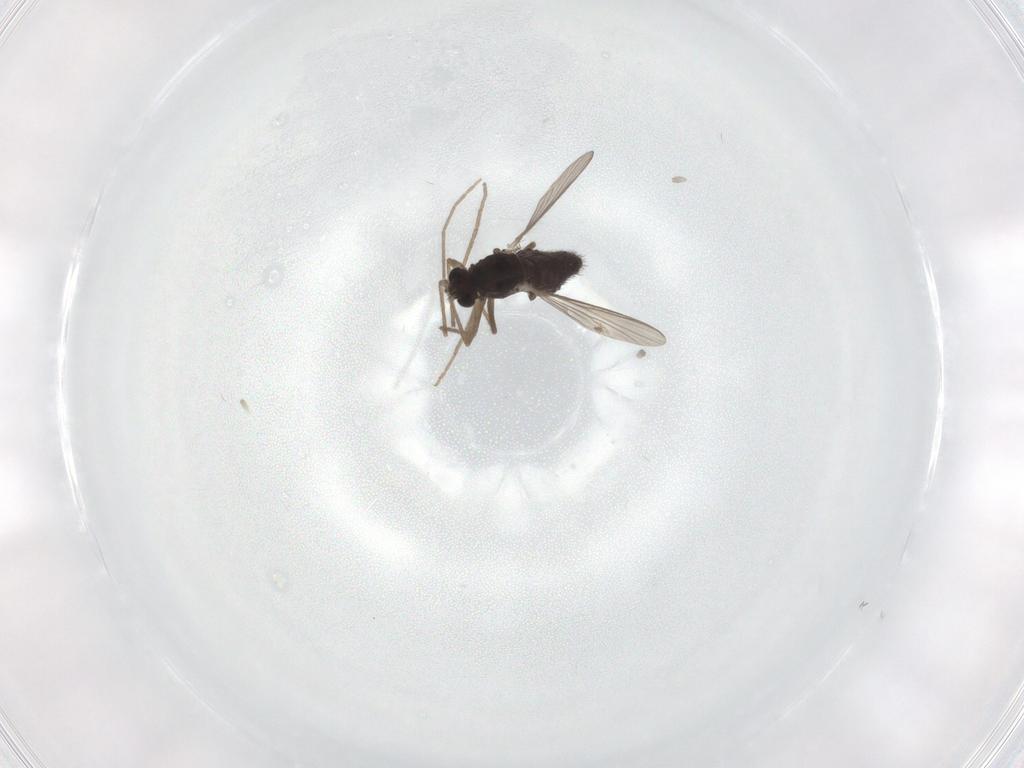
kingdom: Animalia
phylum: Arthropoda
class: Insecta
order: Diptera
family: Chironomidae
